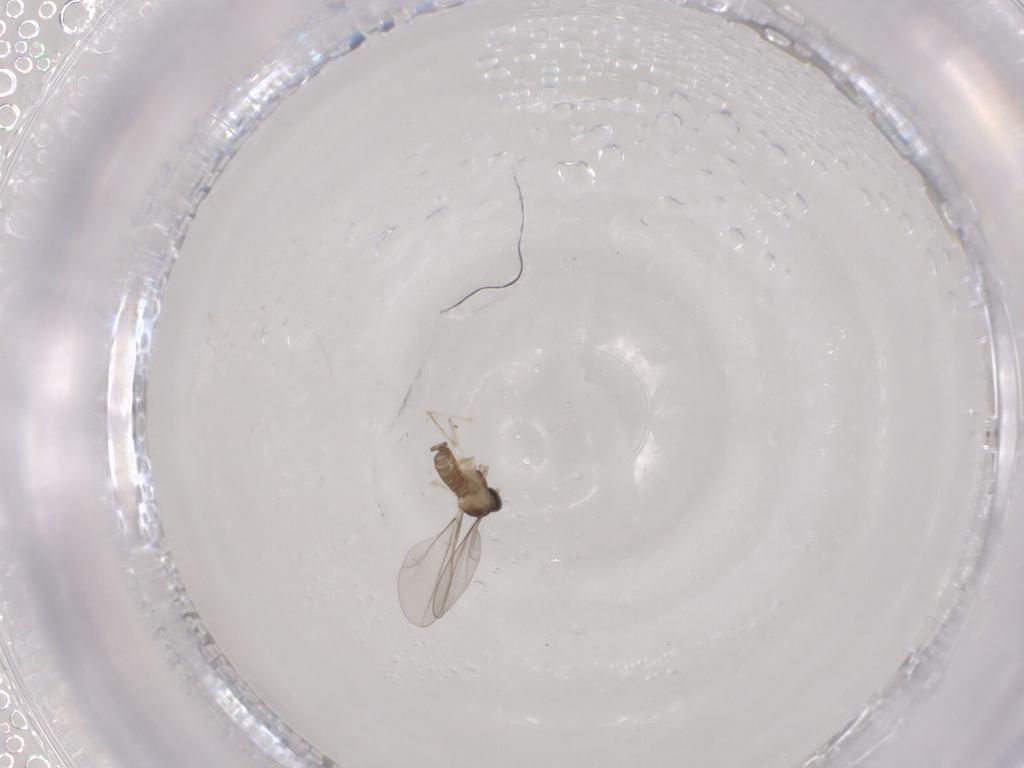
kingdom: Animalia
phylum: Arthropoda
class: Insecta
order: Diptera
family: Cecidomyiidae
